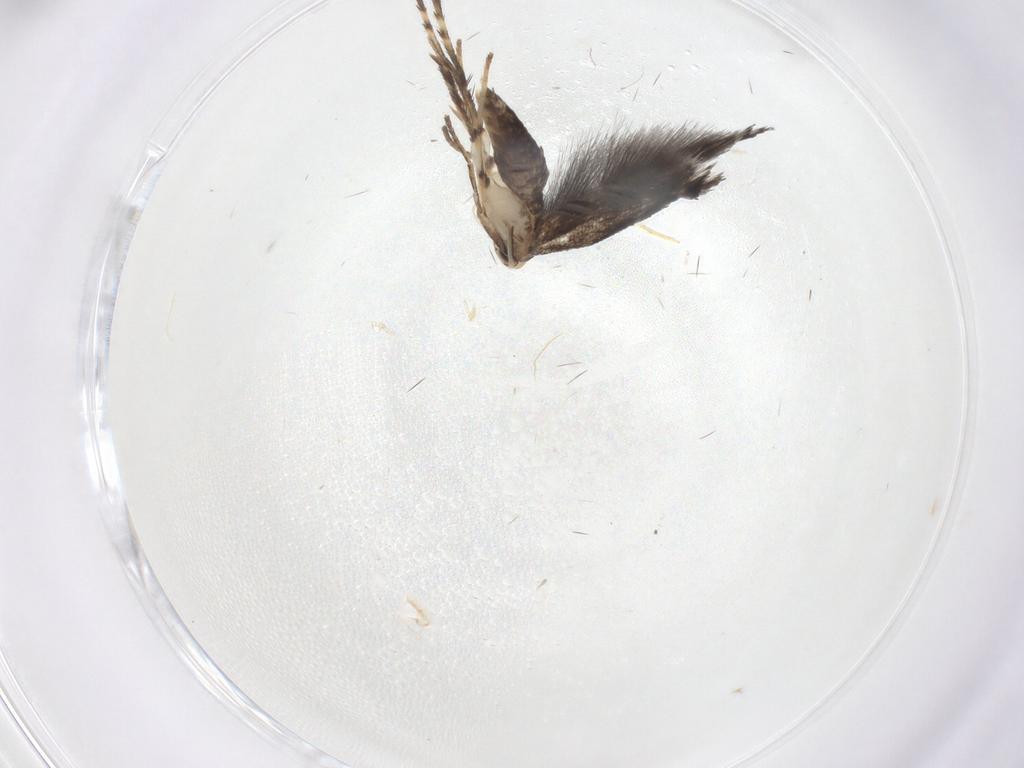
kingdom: Animalia
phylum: Arthropoda
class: Insecta
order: Lepidoptera
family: Gracillariidae
